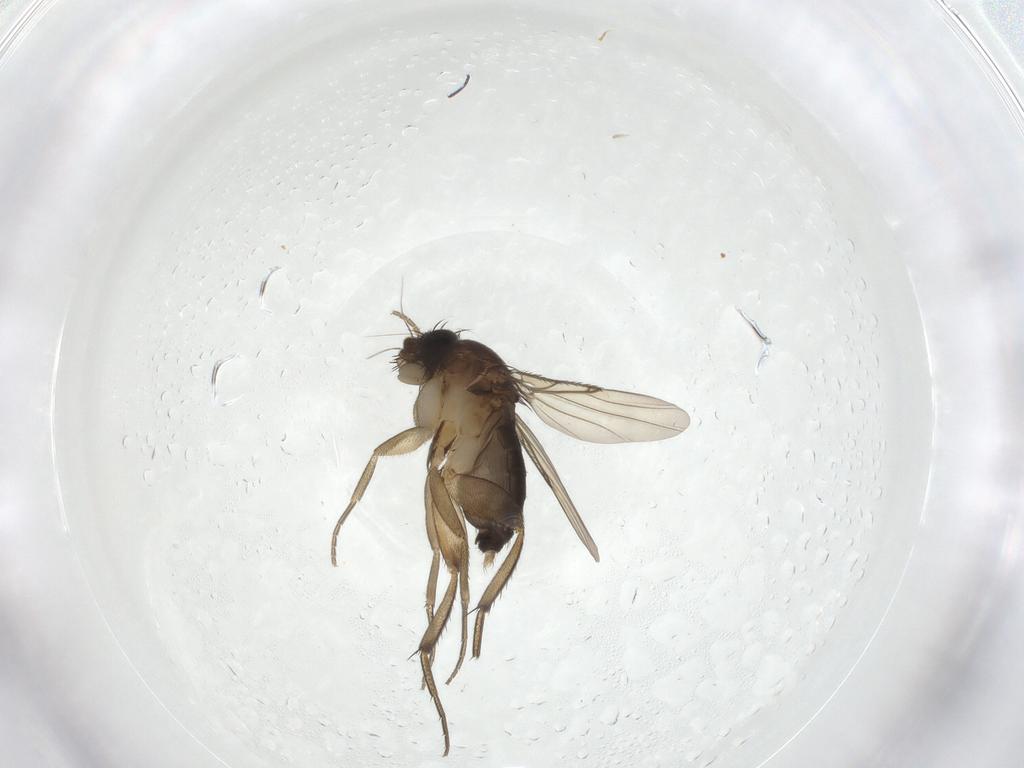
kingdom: Animalia
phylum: Arthropoda
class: Insecta
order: Diptera
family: Phoridae
